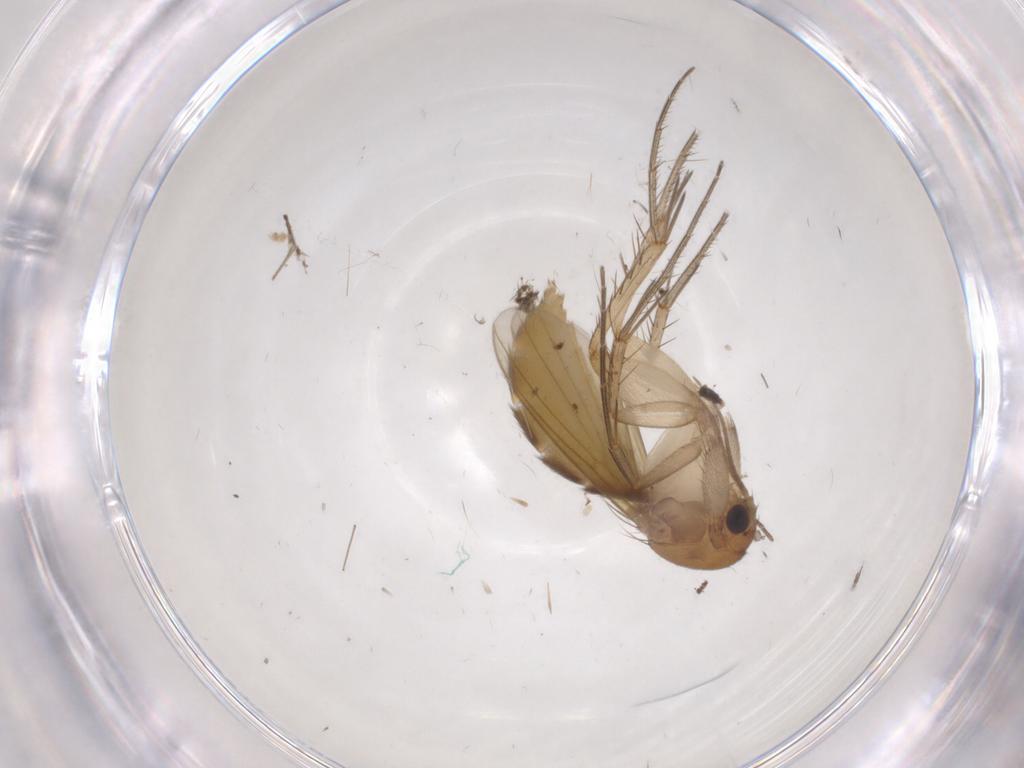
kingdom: Animalia
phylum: Arthropoda
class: Insecta
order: Diptera
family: Mycetophilidae
